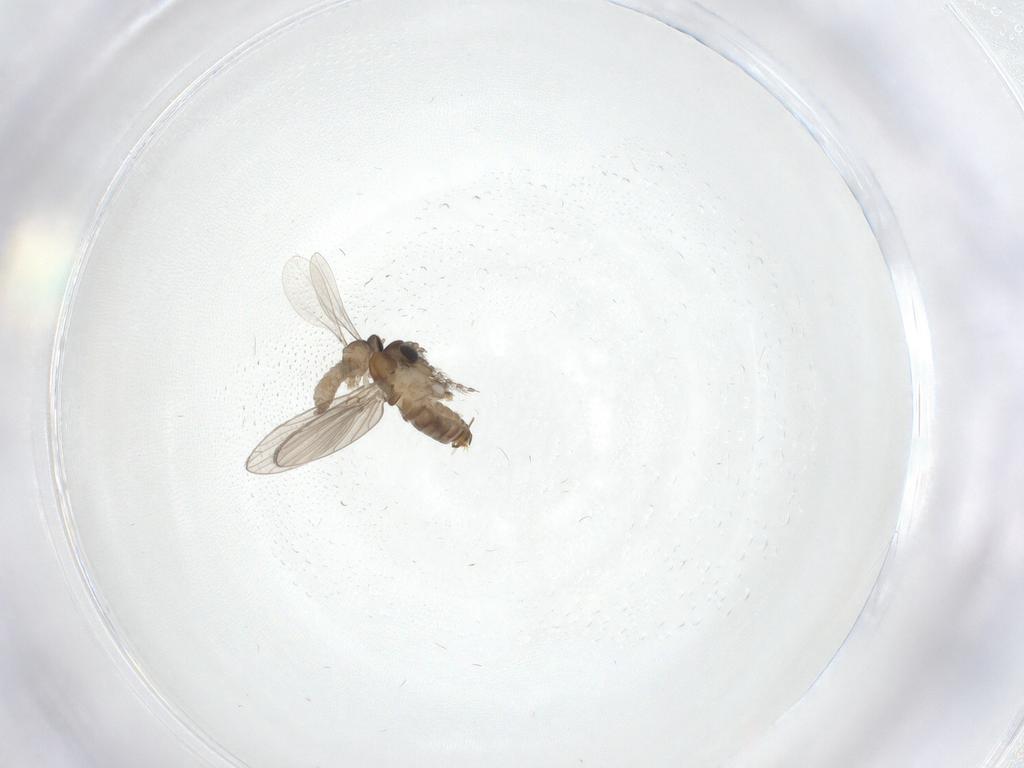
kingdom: Animalia
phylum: Arthropoda
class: Insecta
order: Diptera
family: Psychodidae
